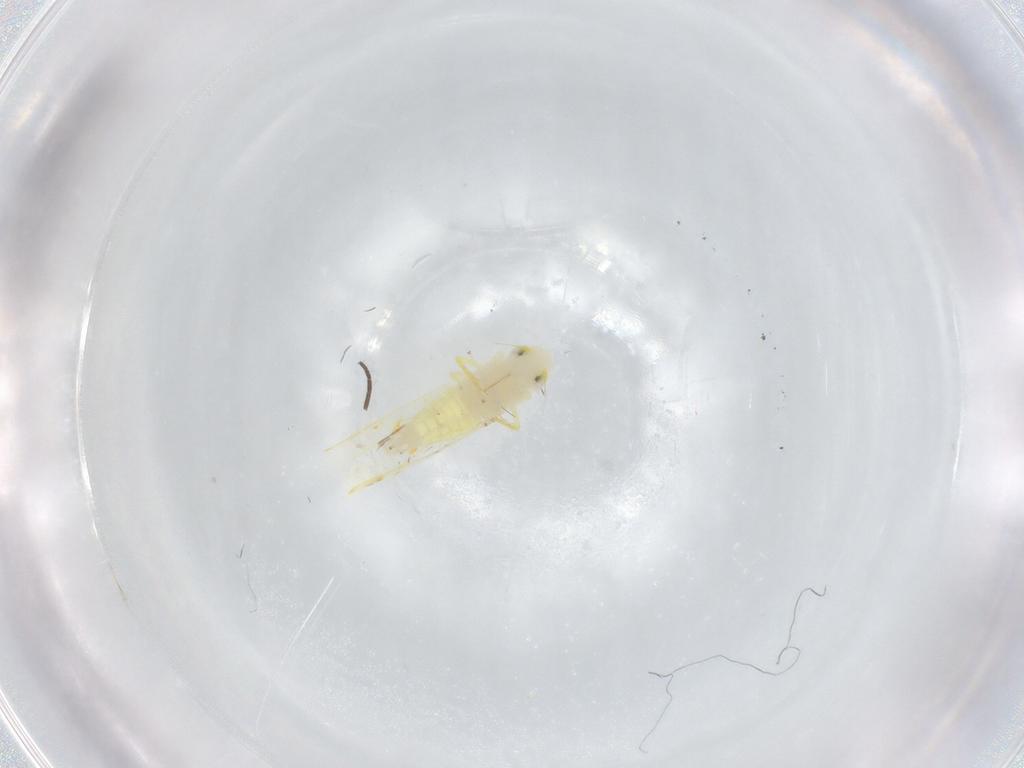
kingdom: Animalia
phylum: Arthropoda
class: Insecta
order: Hemiptera
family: Cicadellidae
